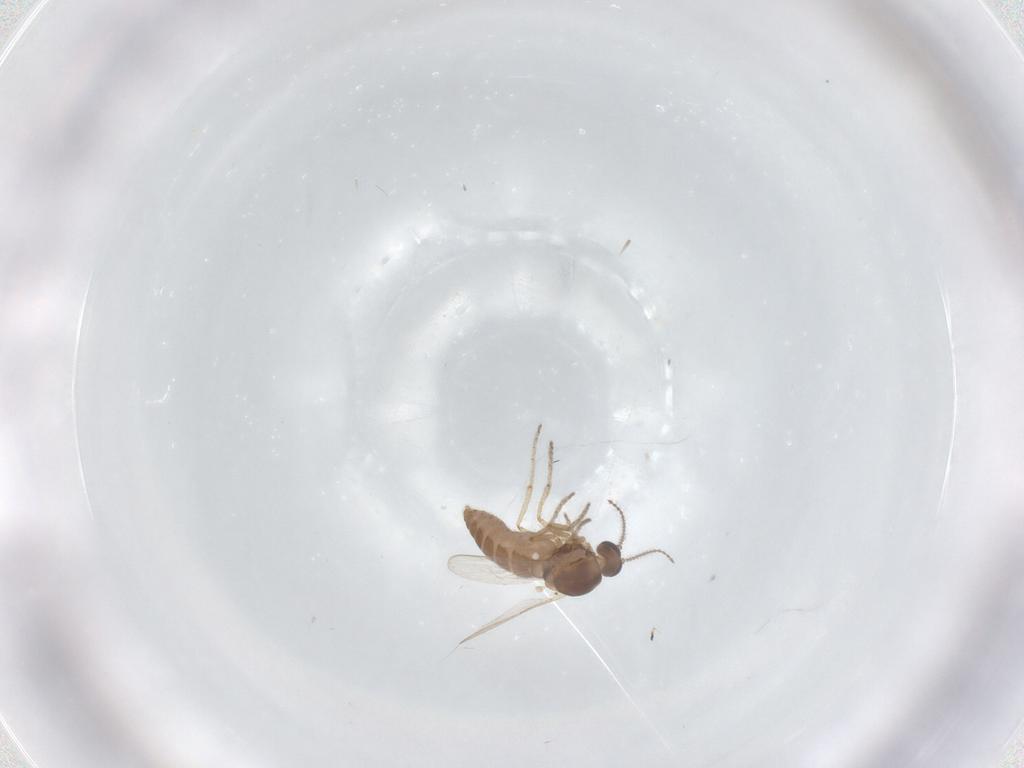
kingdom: Animalia
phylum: Arthropoda
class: Insecta
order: Diptera
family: Ceratopogonidae
